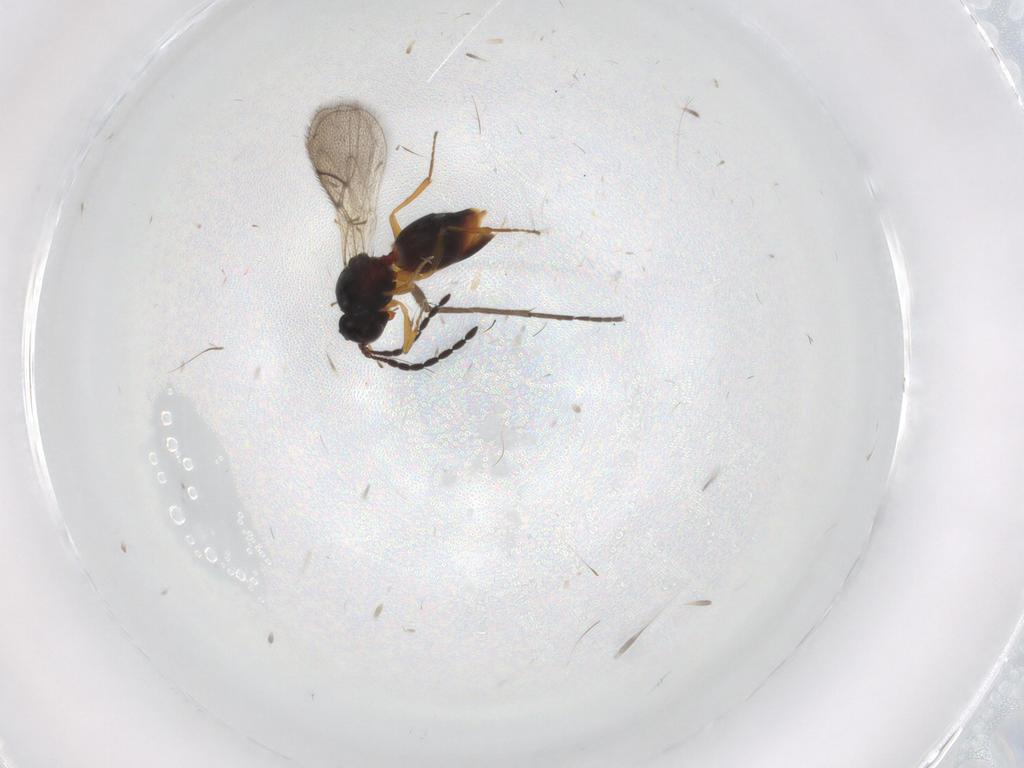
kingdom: Animalia
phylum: Arthropoda
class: Insecta
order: Hymenoptera
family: Figitidae
